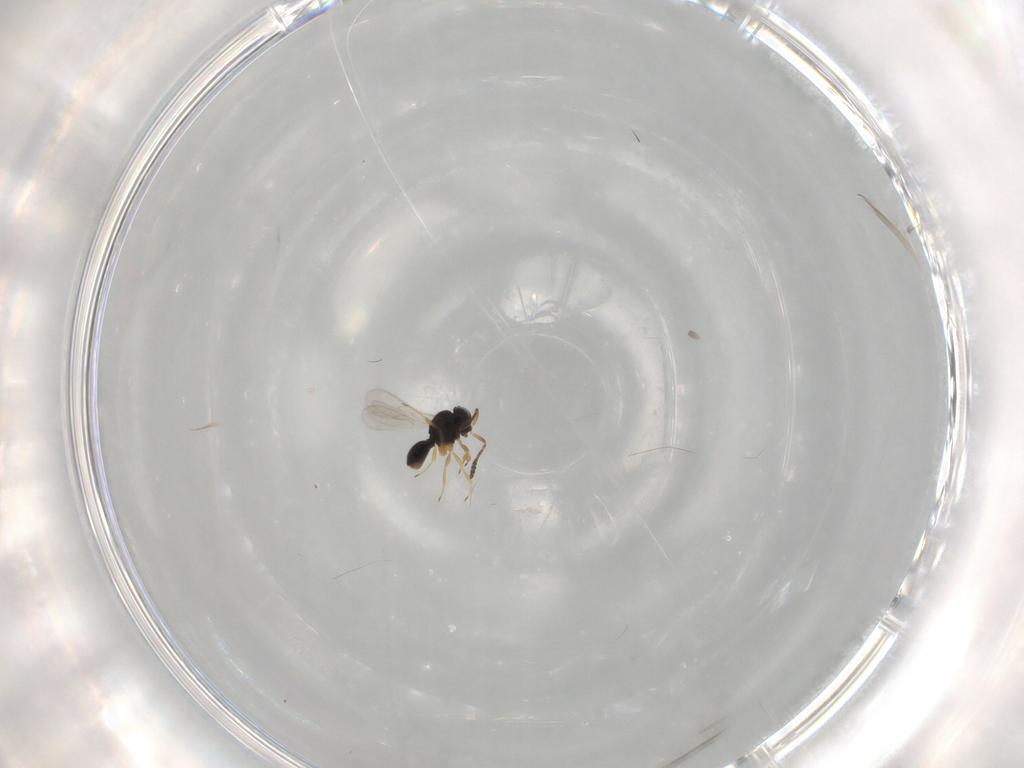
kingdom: Animalia
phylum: Arthropoda
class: Insecta
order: Hymenoptera
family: Scelionidae
